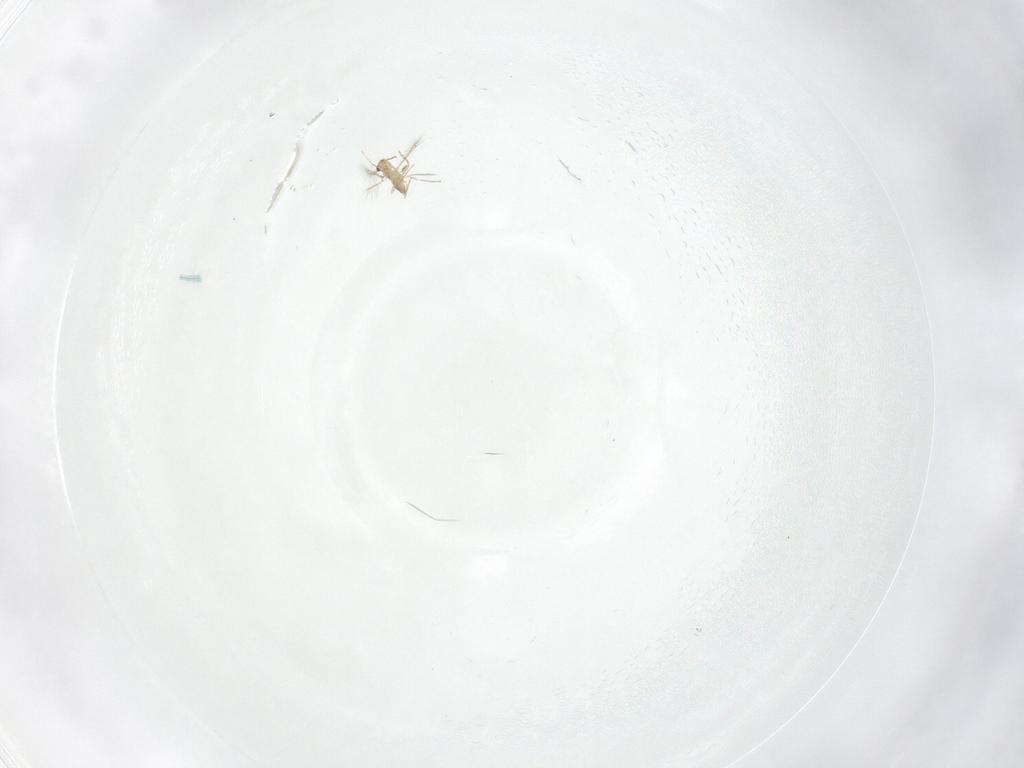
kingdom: Animalia
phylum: Arthropoda
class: Insecta
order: Hymenoptera
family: Mymaridae
